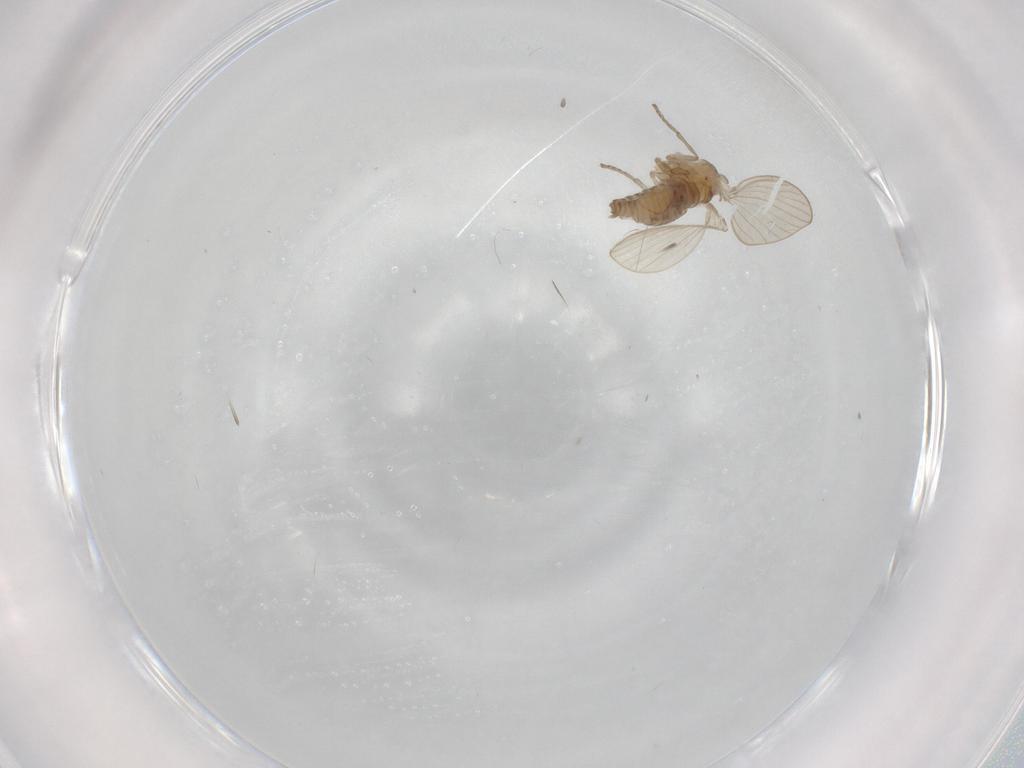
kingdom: Animalia
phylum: Arthropoda
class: Insecta
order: Diptera
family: Psychodidae
